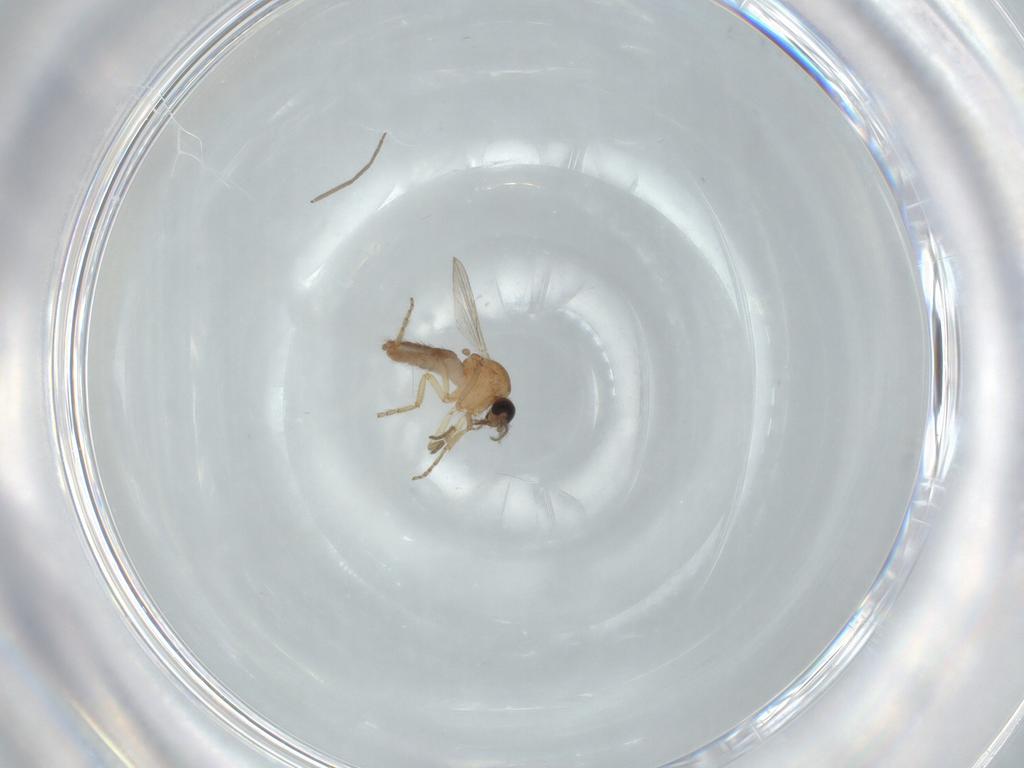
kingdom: Animalia
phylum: Arthropoda
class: Insecta
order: Diptera
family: Ceratopogonidae
